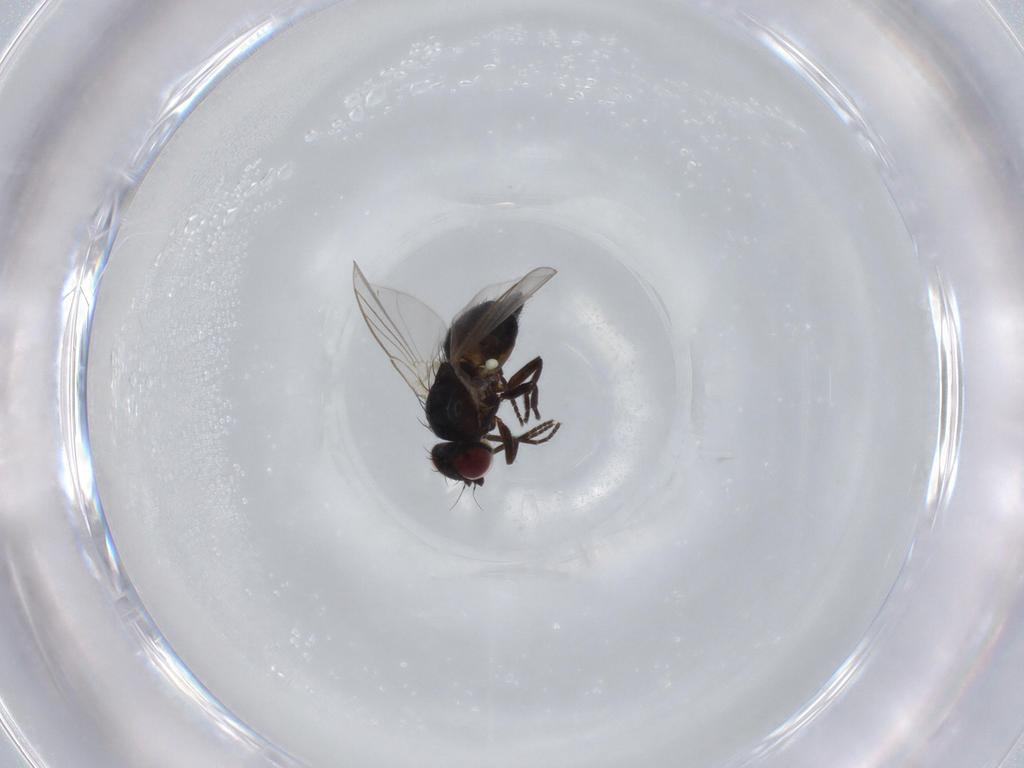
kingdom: Animalia
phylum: Arthropoda
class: Insecta
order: Diptera
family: Agromyzidae
